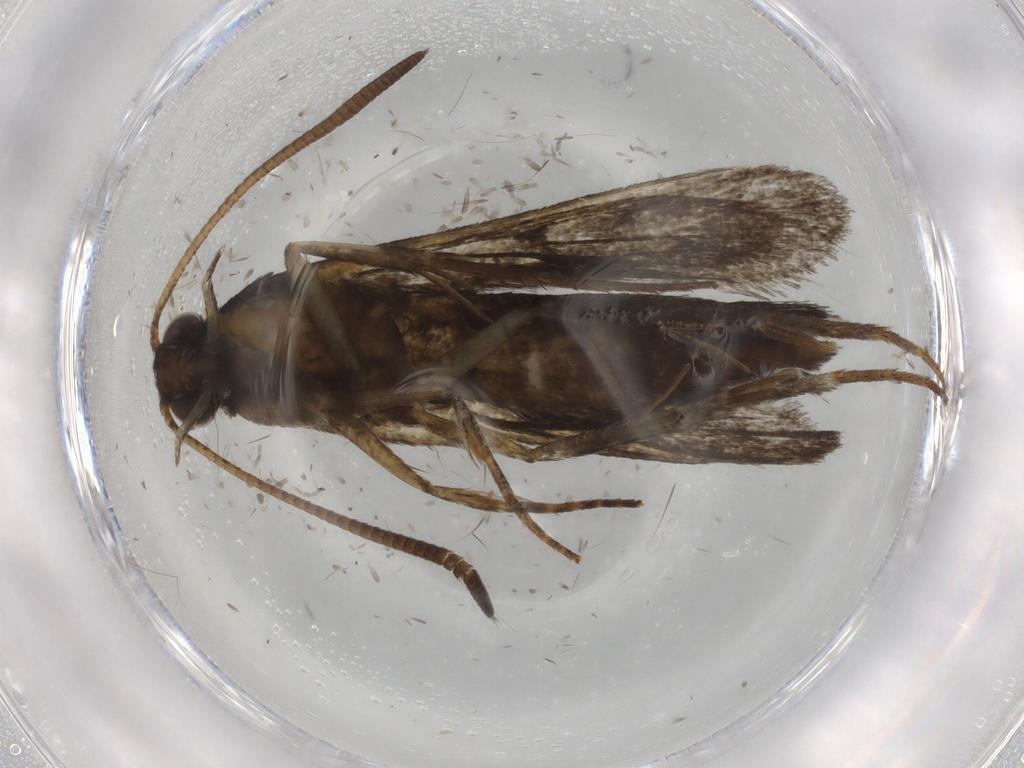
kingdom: Animalia
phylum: Arthropoda
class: Insecta
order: Lepidoptera
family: Sesiidae
